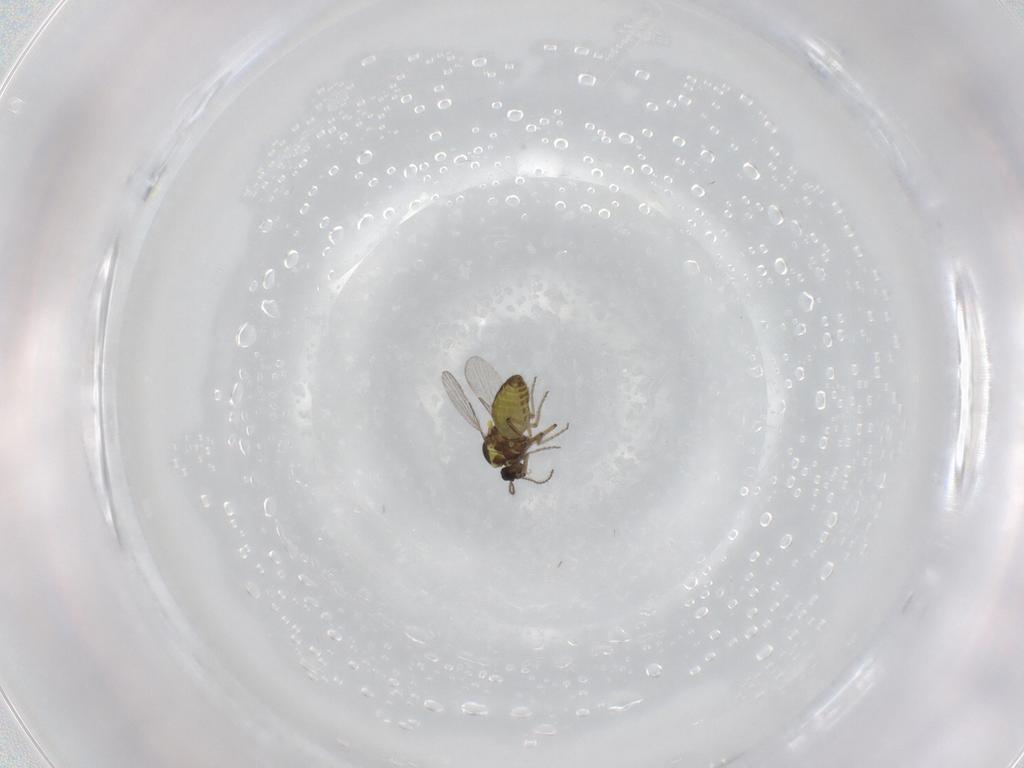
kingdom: Animalia
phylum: Arthropoda
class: Insecta
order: Diptera
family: Ceratopogonidae
